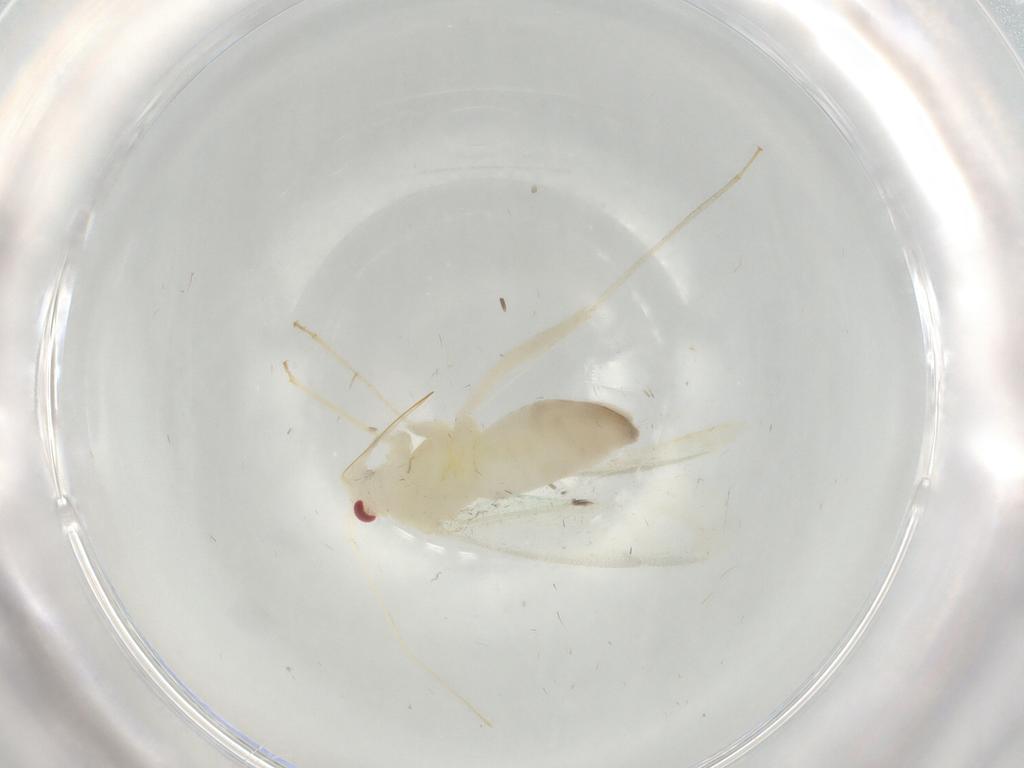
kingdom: Animalia
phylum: Arthropoda
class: Insecta
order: Hemiptera
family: Miridae
